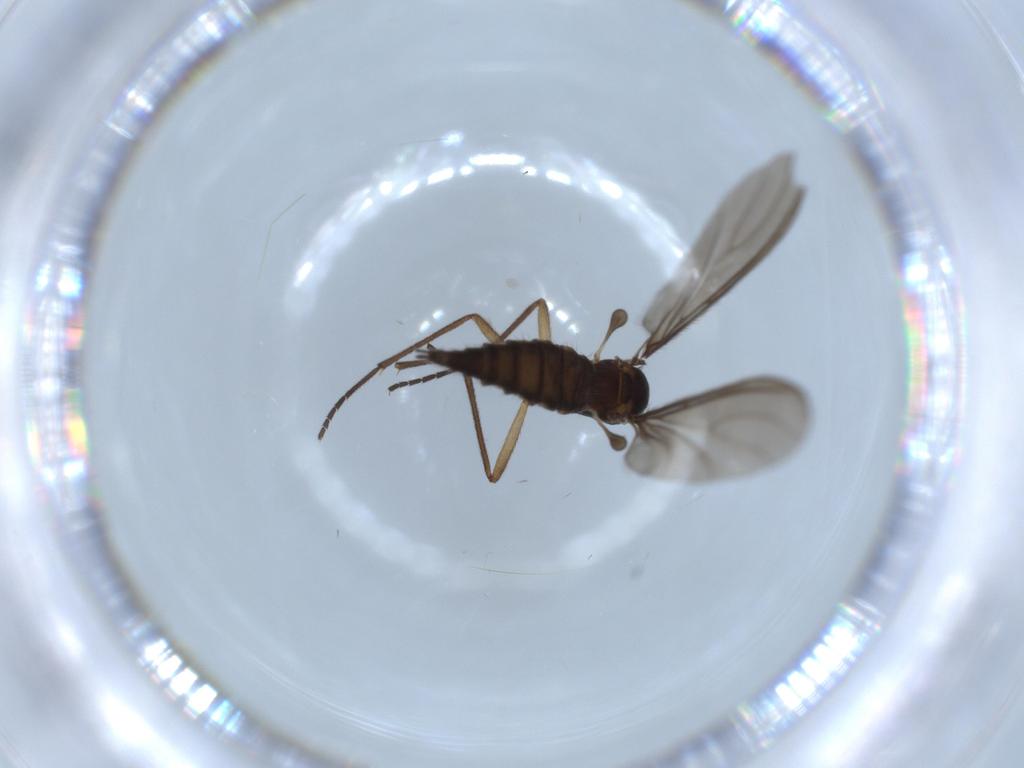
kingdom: Animalia
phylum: Arthropoda
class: Insecta
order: Diptera
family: Sciaridae
